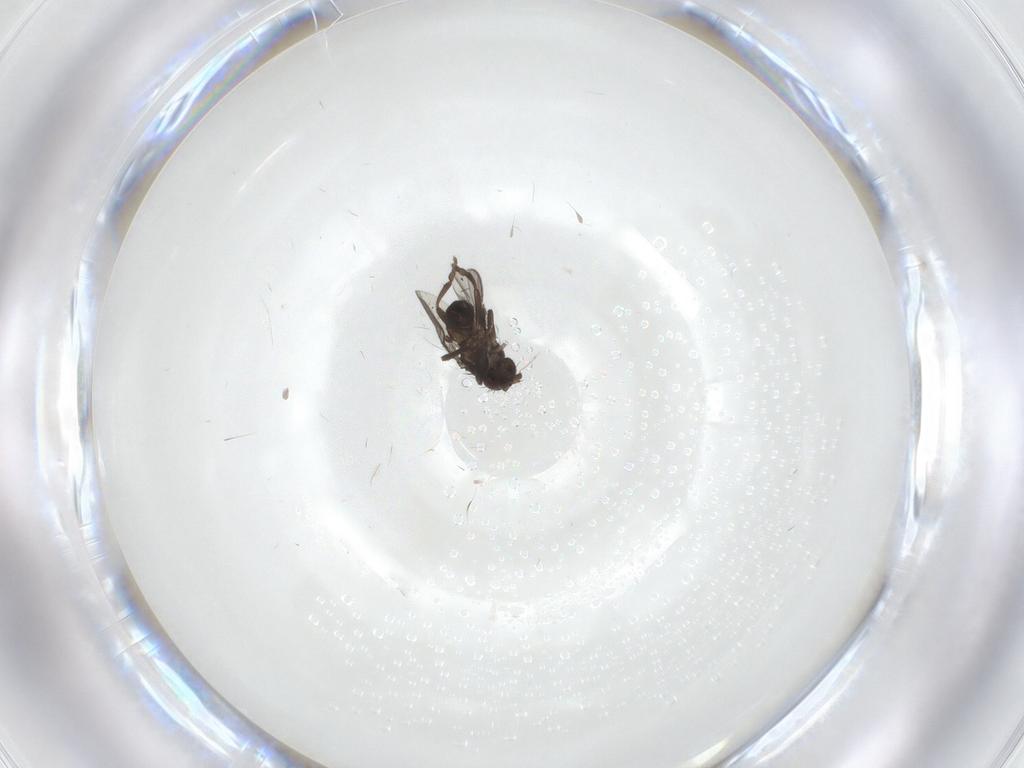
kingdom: Animalia
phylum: Arthropoda
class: Insecta
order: Diptera
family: Sphaeroceridae
